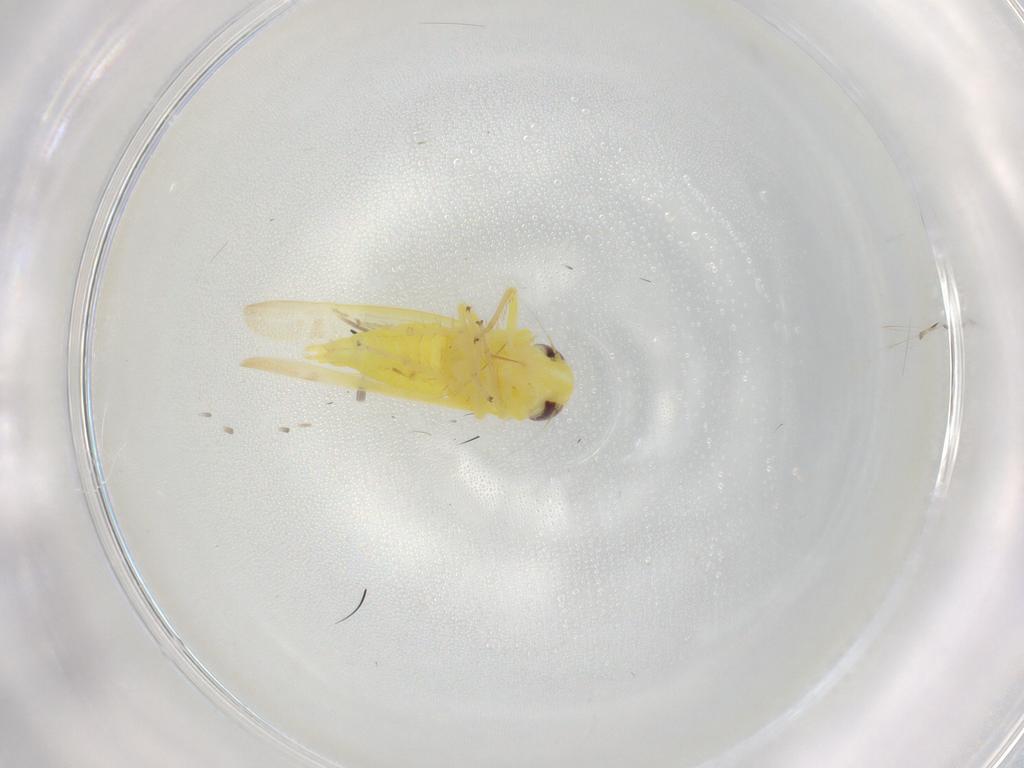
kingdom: Animalia
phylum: Arthropoda
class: Insecta
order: Hemiptera
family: Cicadellidae
